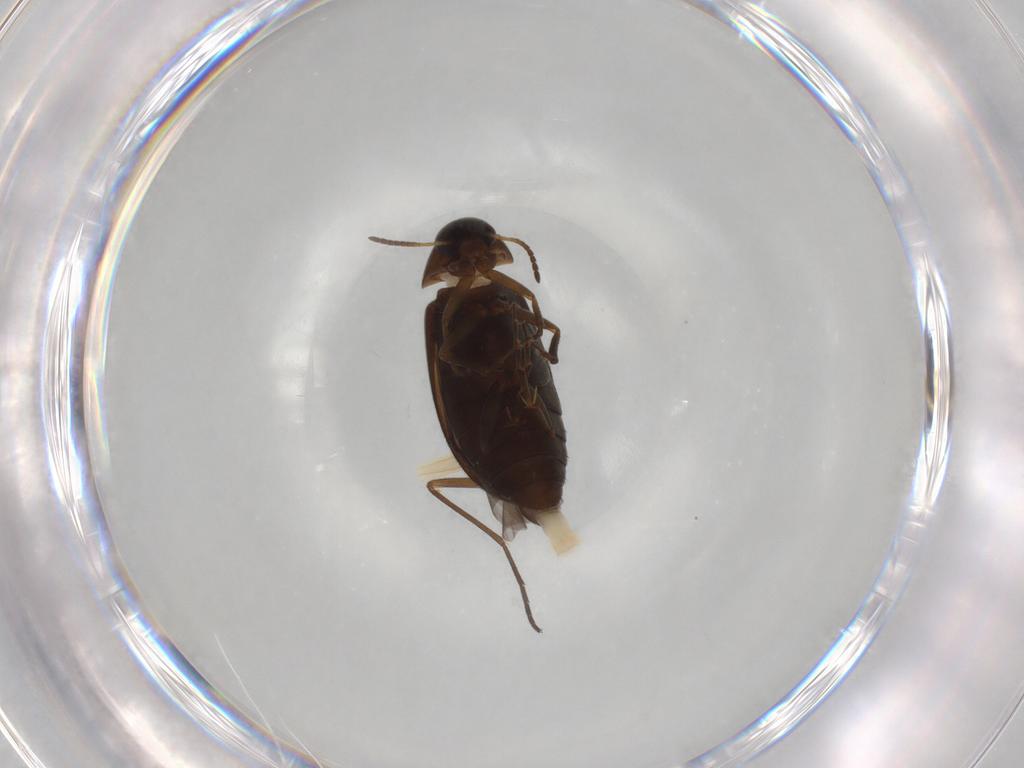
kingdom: Animalia
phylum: Arthropoda
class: Insecta
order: Coleoptera
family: Scraptiidae
